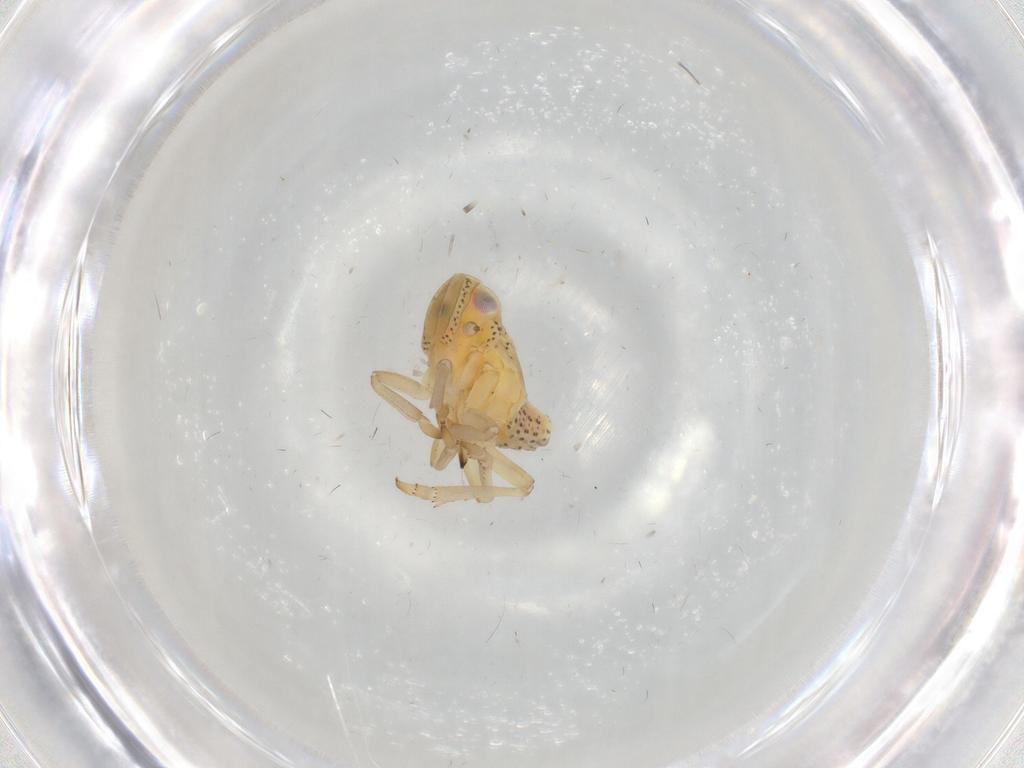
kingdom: Animalia
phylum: Arthropoda
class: Insecta
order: Hemiptera
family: Tropiduchidae
